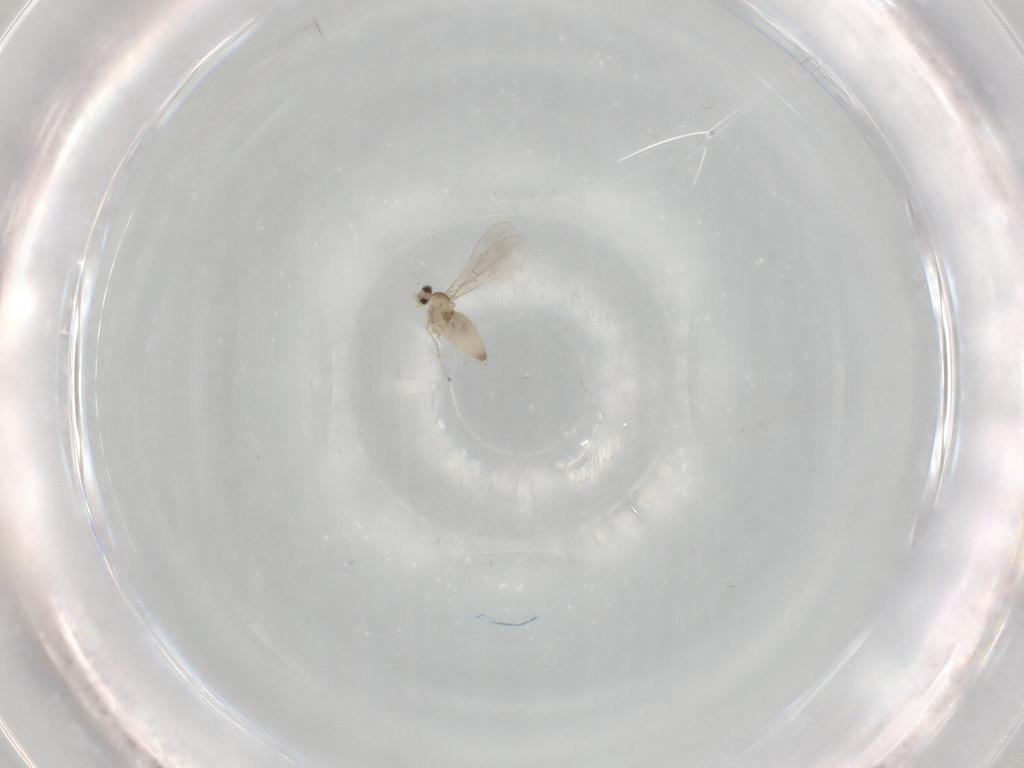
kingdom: Animalia
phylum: Arthropoda
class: Insecta
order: Diptera
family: Cecidomyiidae
